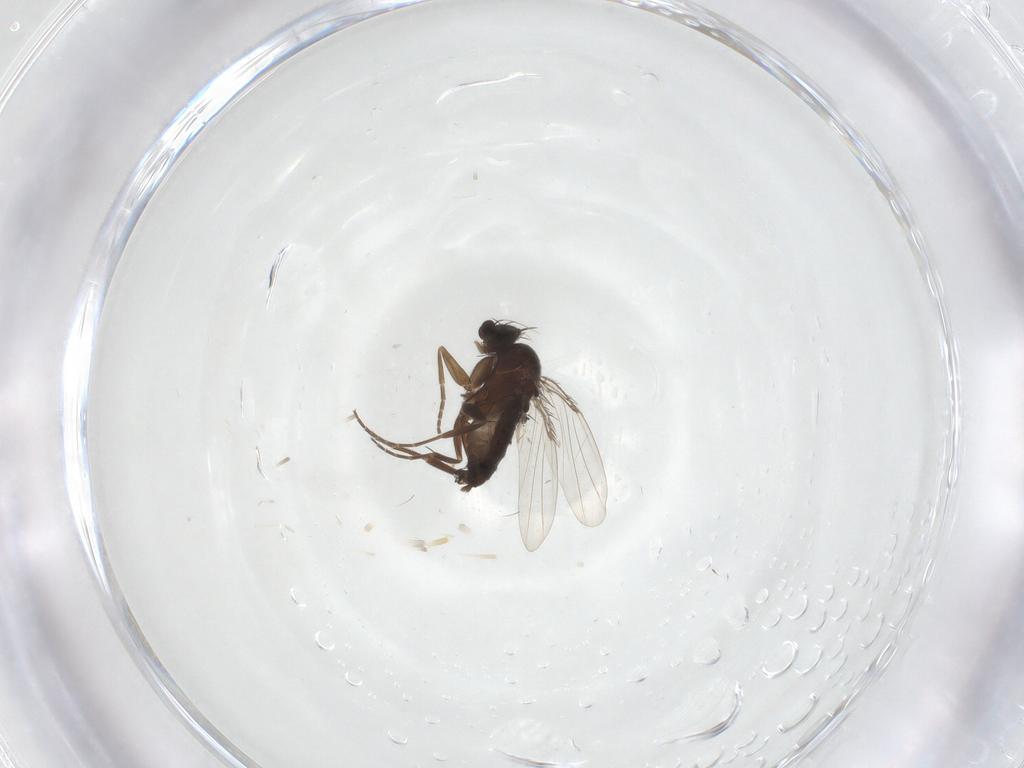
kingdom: Animalia
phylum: Arthropoda
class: Insecta
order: Diptera
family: Phoridae
